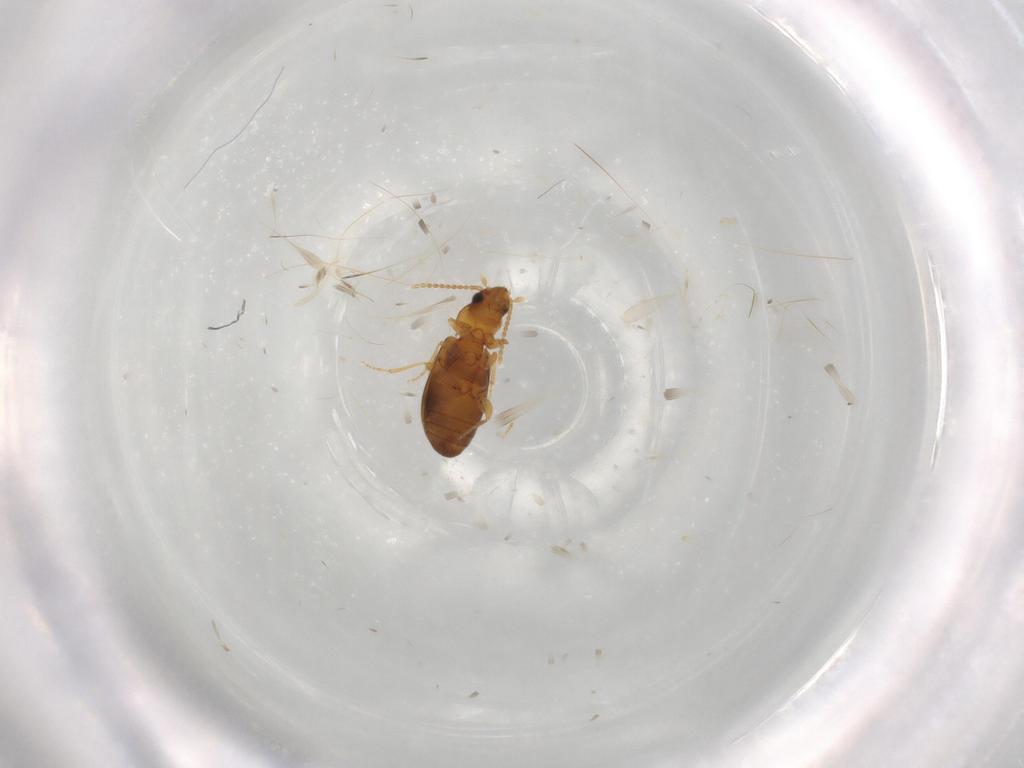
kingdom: Animalia
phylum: Arthropoda
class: Insecta
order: Coleoptera
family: Carabidae
